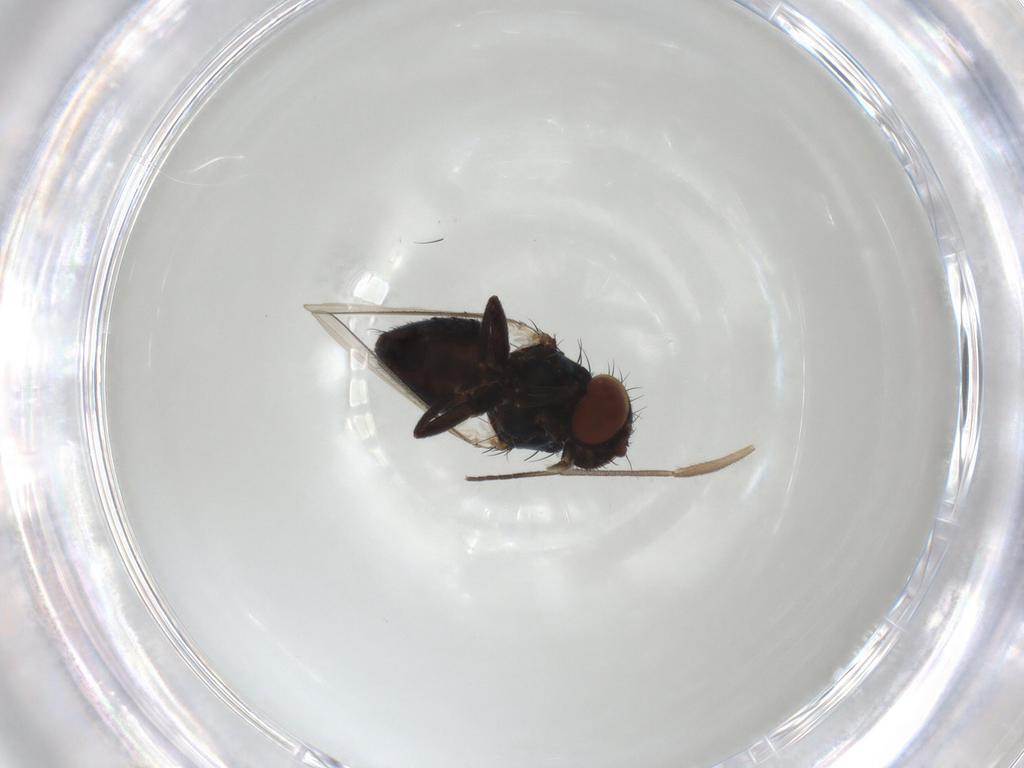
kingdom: Animalia
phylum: Arthropoda
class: Insecta
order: Diptera
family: Milichiidae
